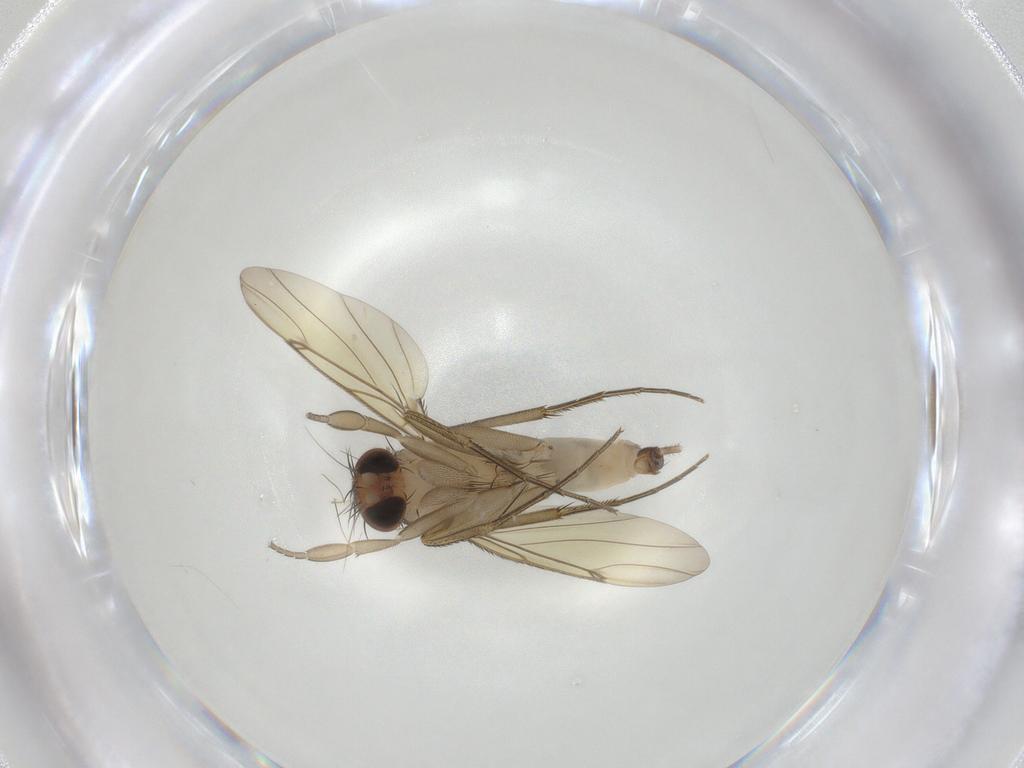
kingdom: Animalia
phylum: Arthropoda
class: Insecta
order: Diptera
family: Phoridae
